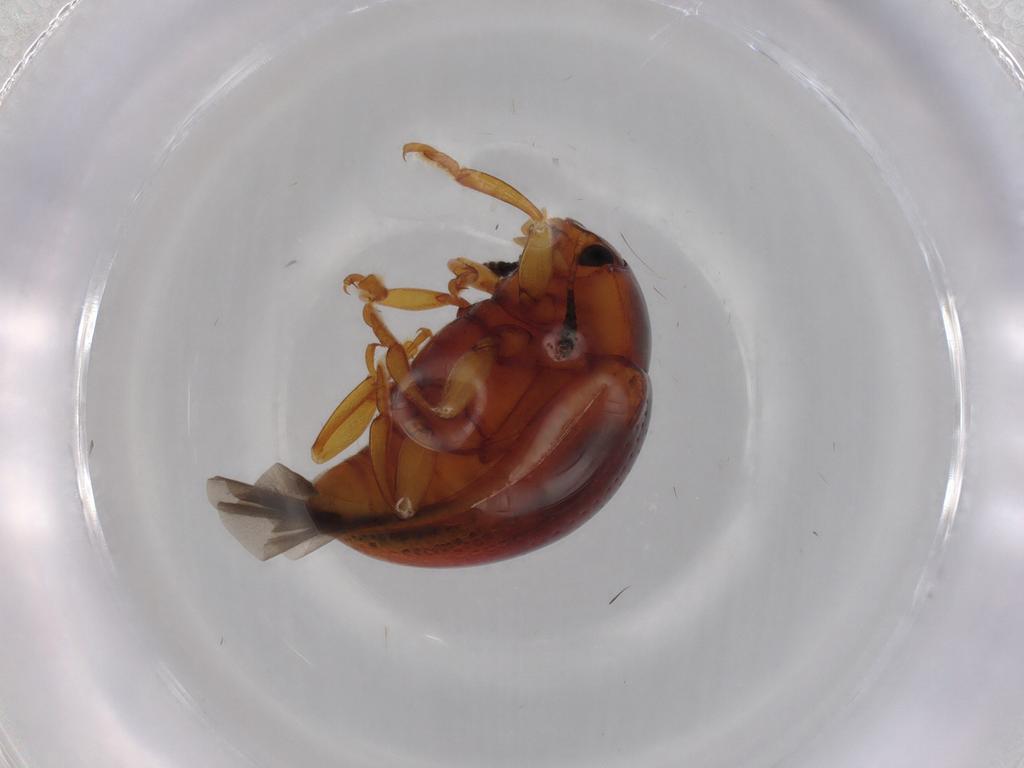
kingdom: Animalia
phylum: Arthropoda
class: Insecta
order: Coleoptera
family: Erotylidae
